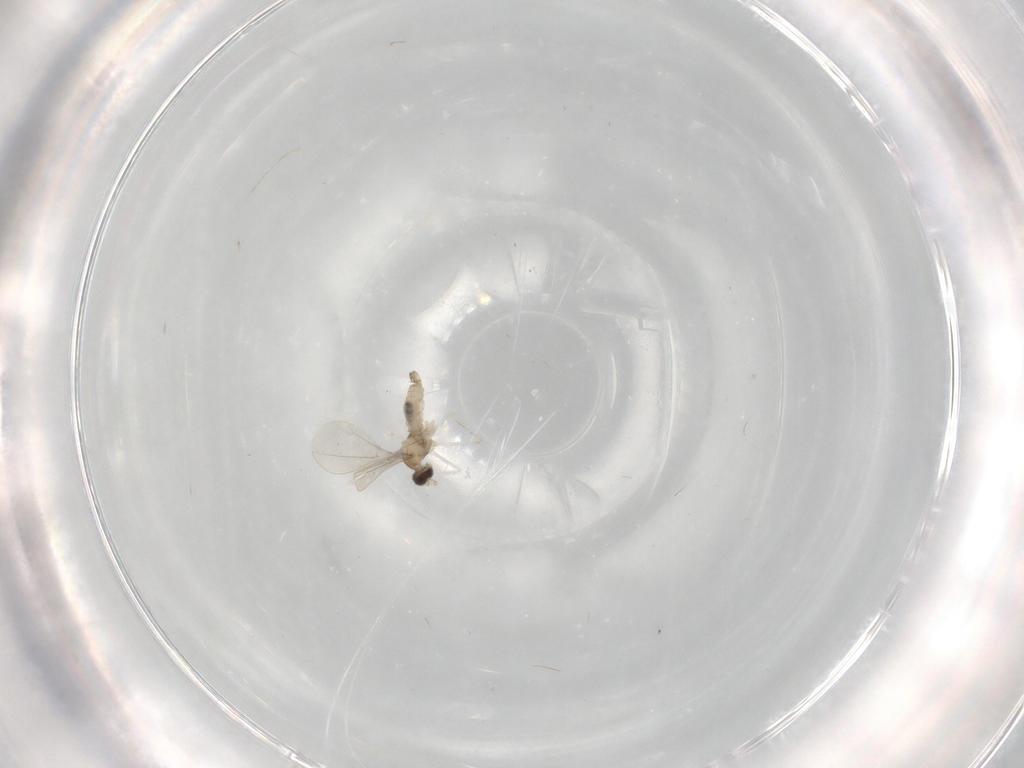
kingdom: Animalia
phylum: Arthropoda
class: Insecta
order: Diptera
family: Cecidomyiidae
